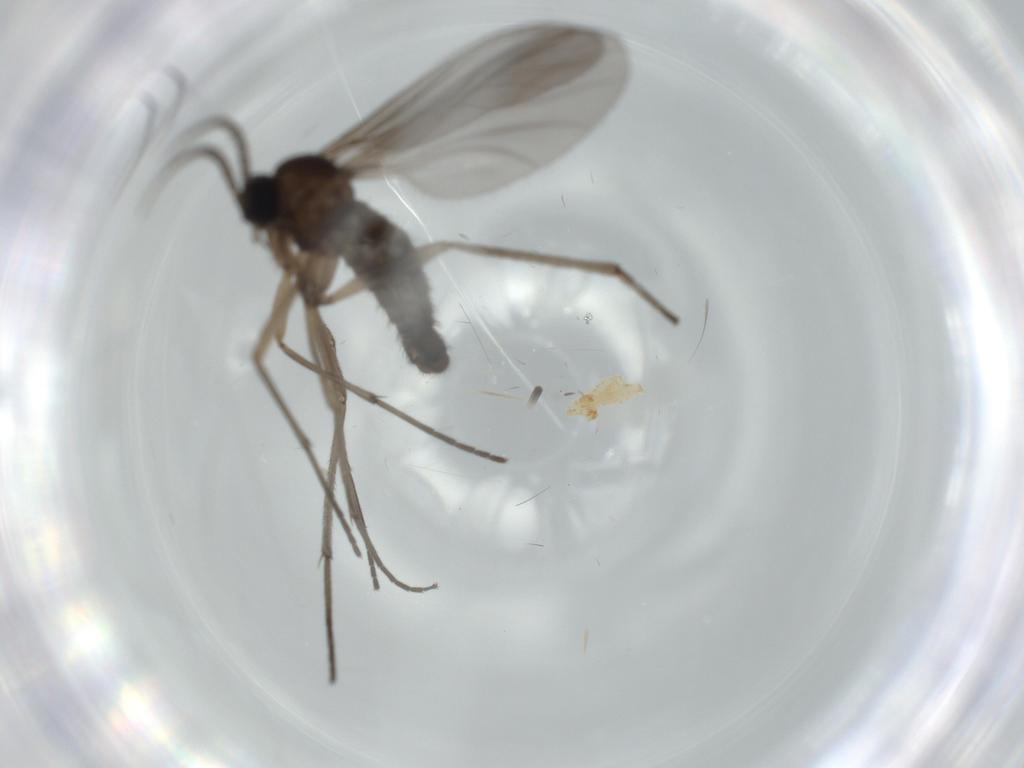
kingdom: Animalia
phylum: Arthropoda
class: Insecta
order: Diptera
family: Sciaridae
